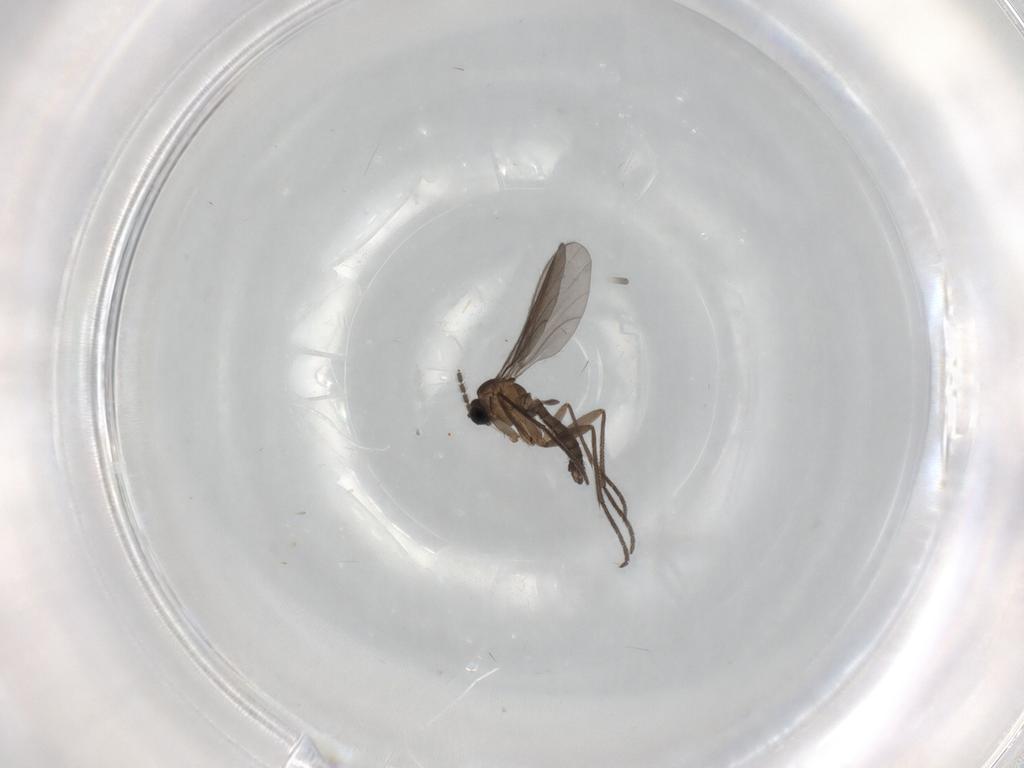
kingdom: Animalia
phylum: Arthropoda
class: Insecta
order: Diptera
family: Sciaridae
